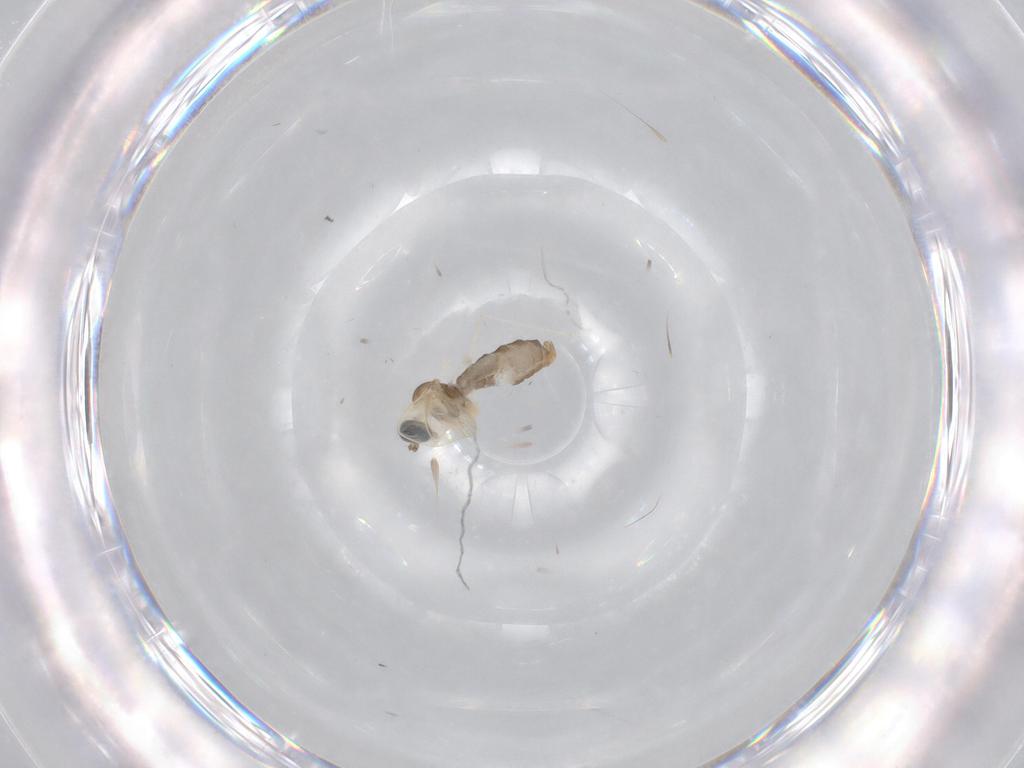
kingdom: Animalia
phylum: Arthropoda
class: Insecta
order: Diptera
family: Cecidomyiidae
